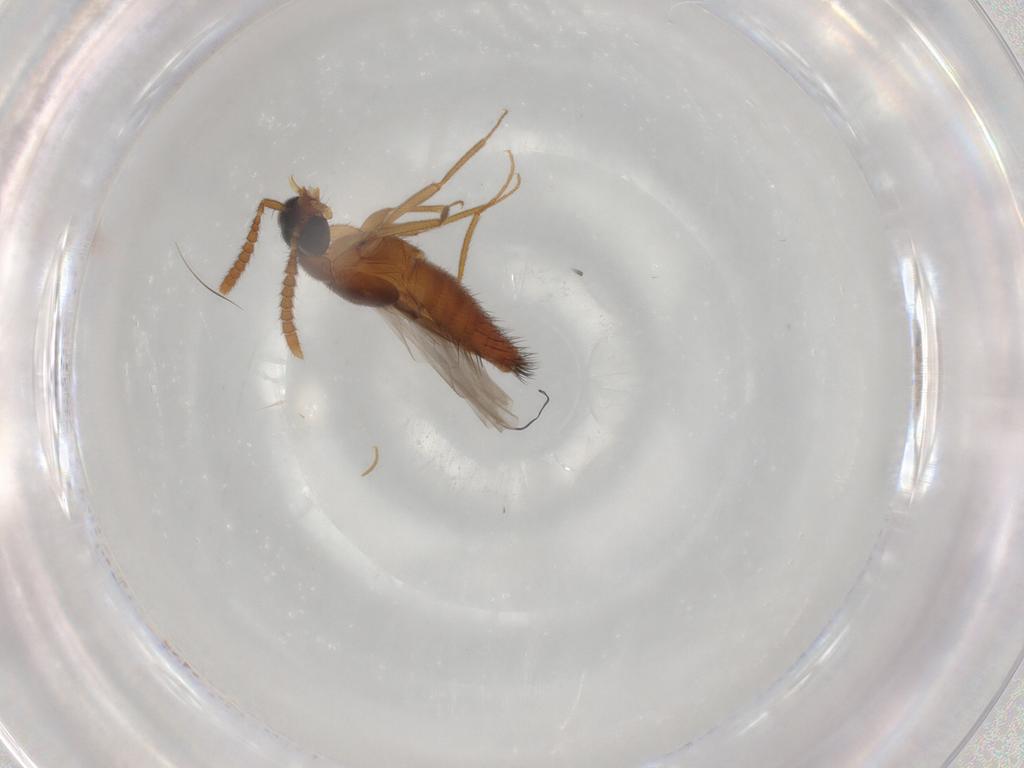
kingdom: Animalia
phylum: Arthropoda
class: Insecta
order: Coleoptera
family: Staphylinidae
